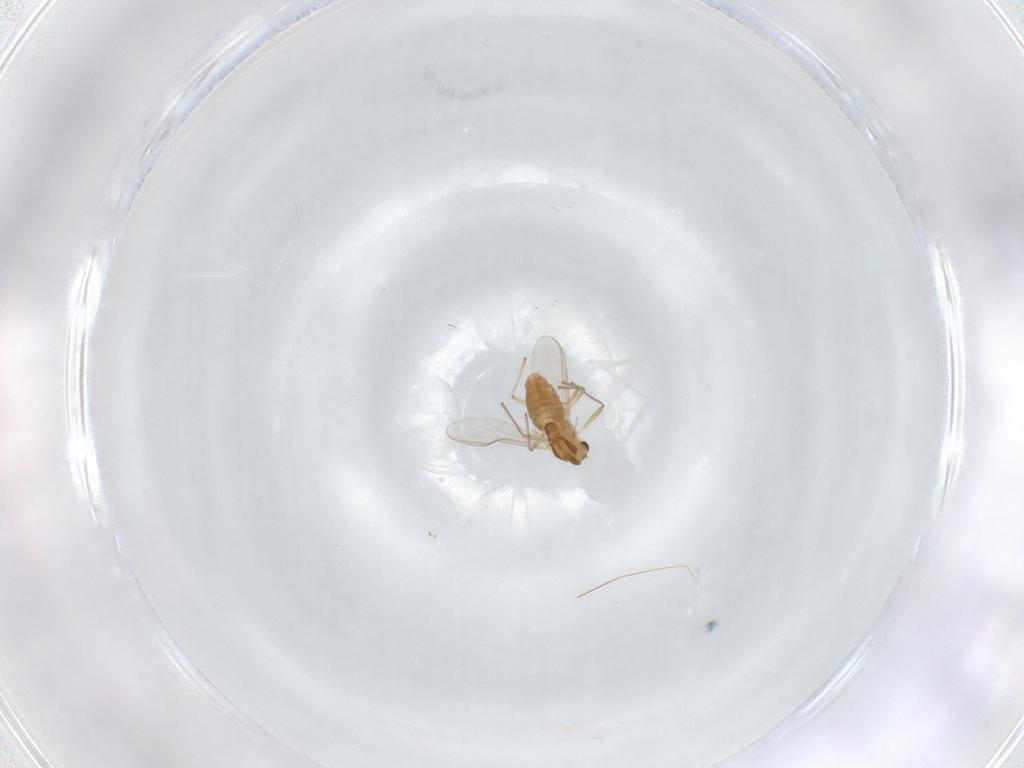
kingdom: Animalia
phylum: Arthropoda
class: Insecta
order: Diptera
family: Chironomidae
